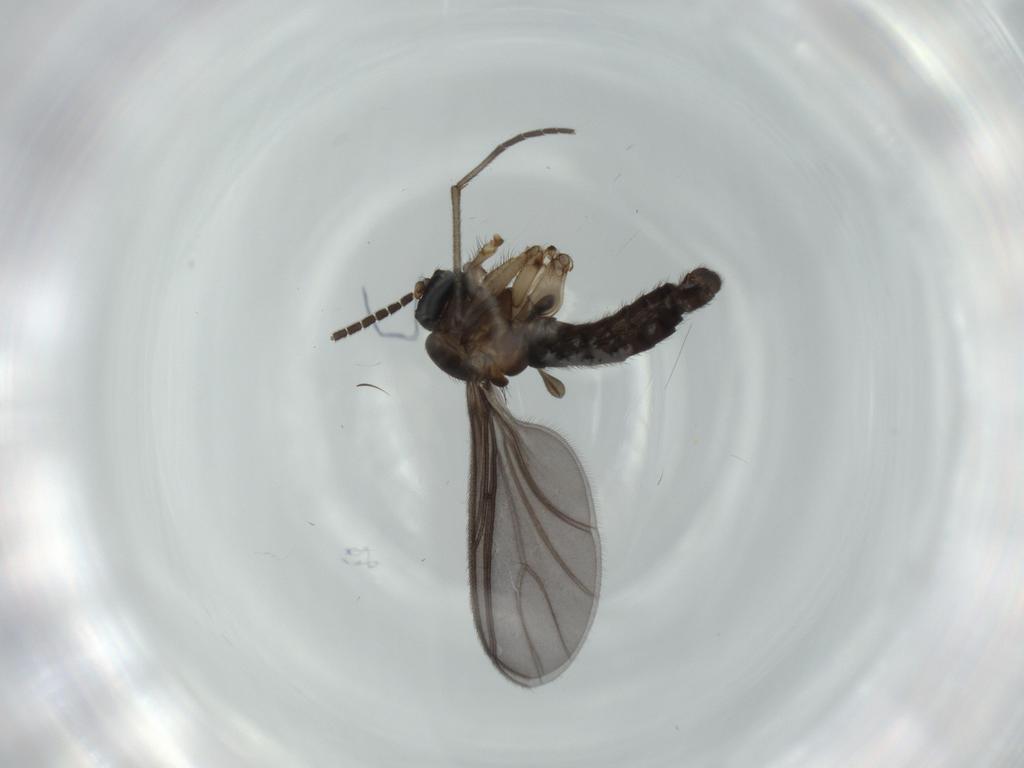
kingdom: Animalia
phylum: Arthropoda
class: Insecta
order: Diptera
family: Sciaridae
